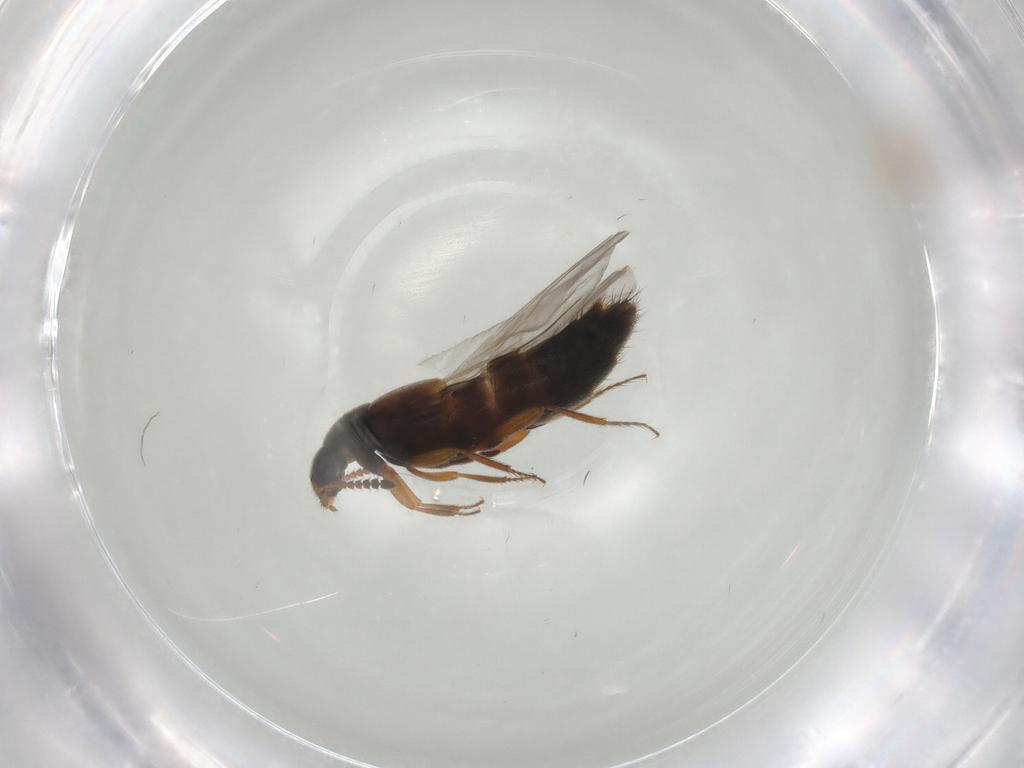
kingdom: Animalia
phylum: Arthropoda
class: Insecta
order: Coleoptera
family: Staphylinidae
